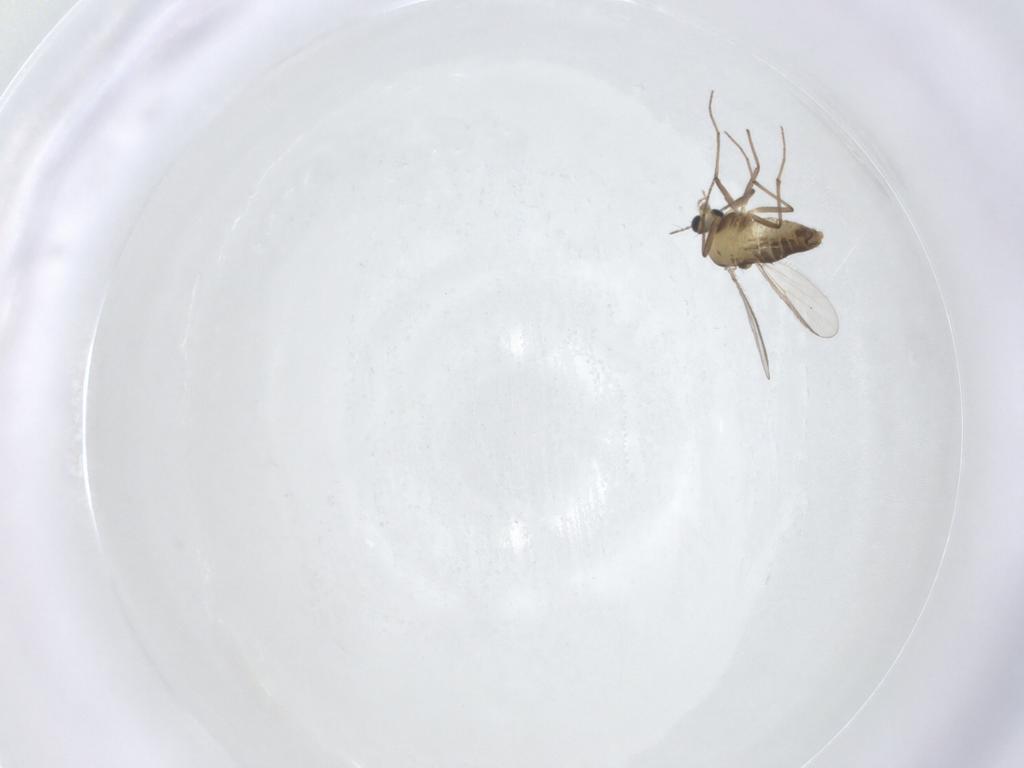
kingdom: Animalia
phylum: Arthropoda
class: Insecta
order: Diptera
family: Chironomidae
